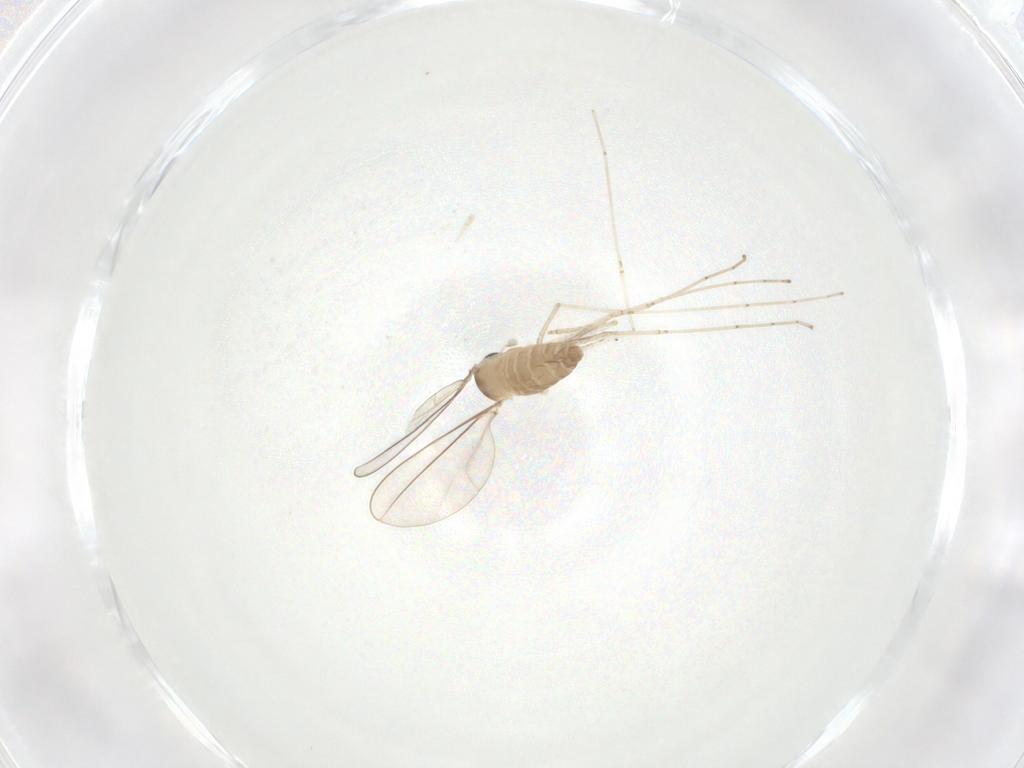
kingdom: Animalia
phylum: Arthropoda
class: Insecta
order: Diptera
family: Cecidomyiidae
